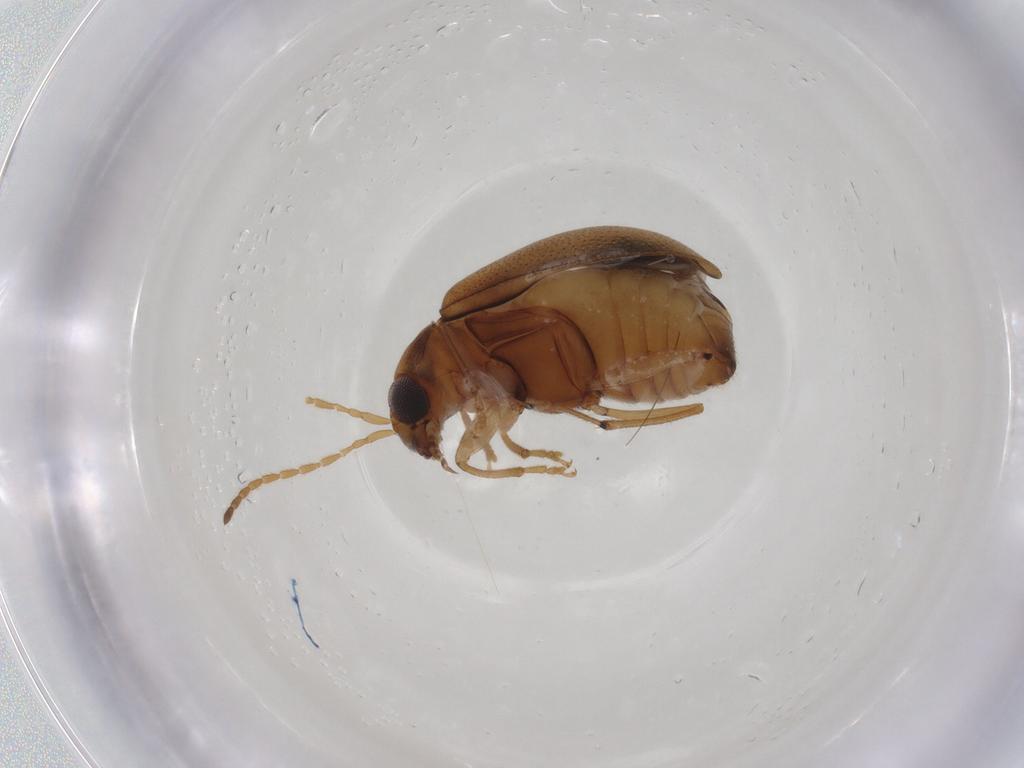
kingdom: Animalia
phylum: Arthropoda
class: Insecta
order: Coleoptera
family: Chrysomelidae
